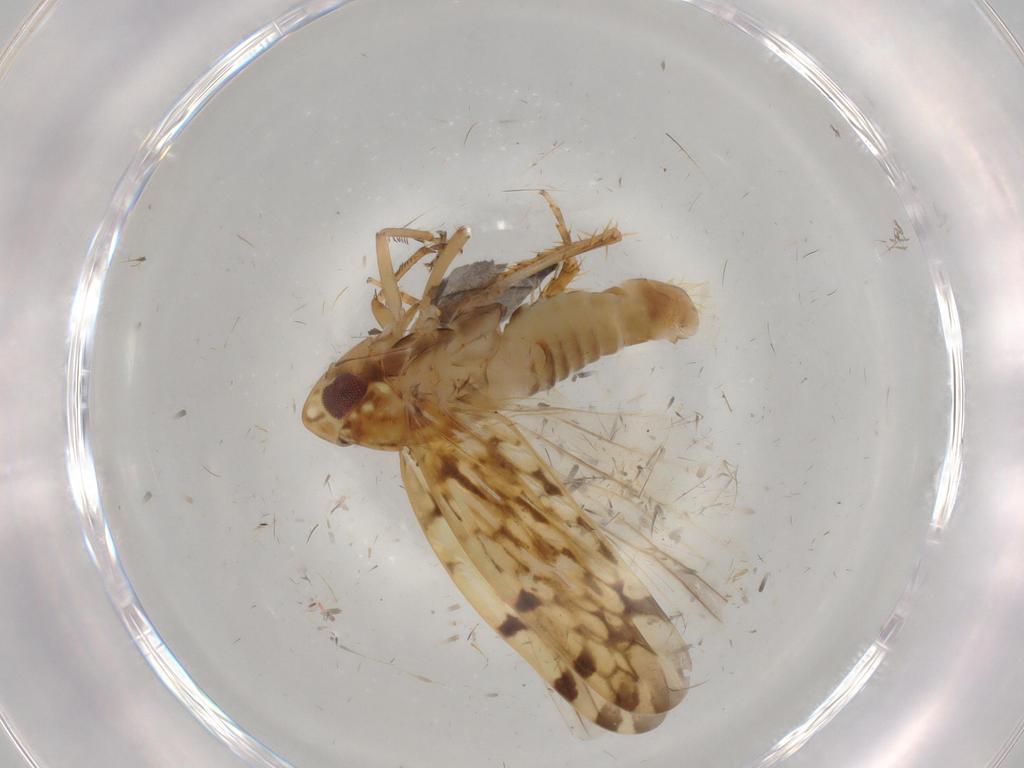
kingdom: Animalia
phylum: Arthropoda
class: Insecta
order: Hemiptera
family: Cicadellidae
